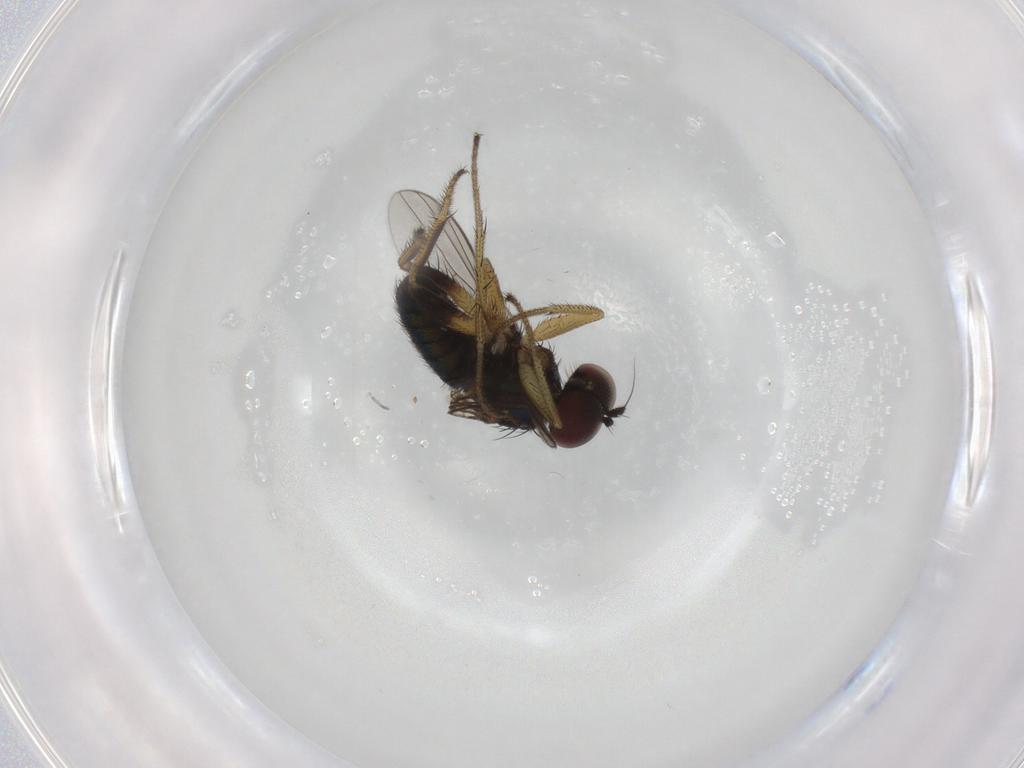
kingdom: Animalia
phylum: Arthropoda
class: Insecta
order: Diptera
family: Dolichopodidae
